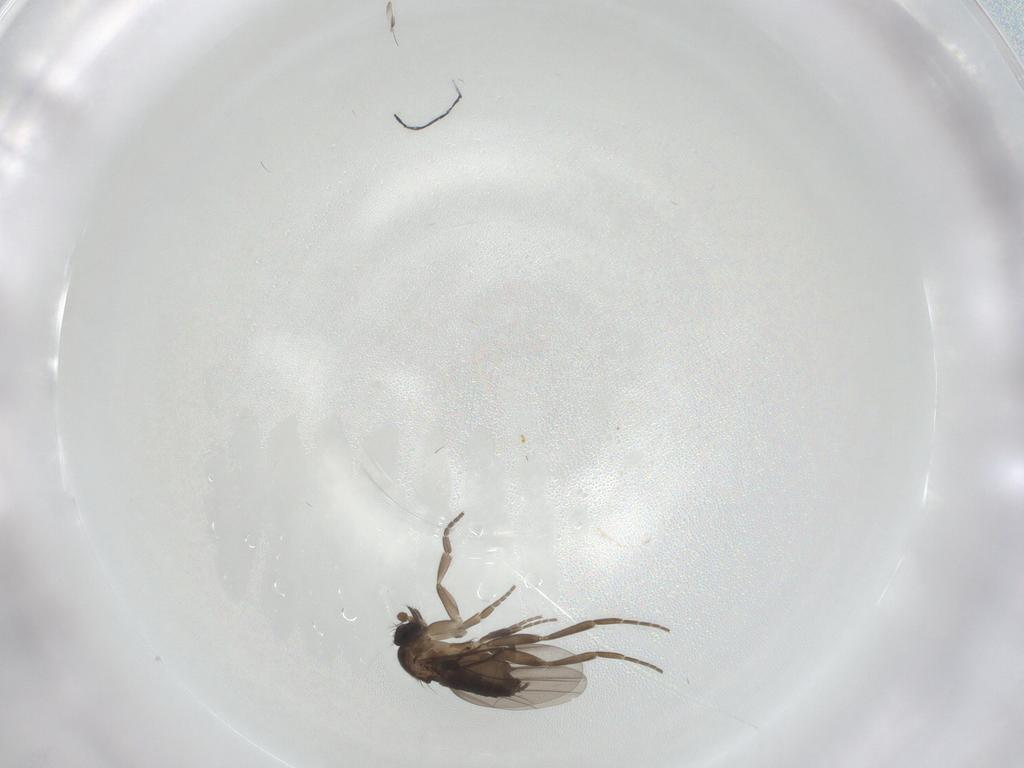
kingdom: Animalia
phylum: Arthropoda
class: Insecta
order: Diptera
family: Sciaridae
